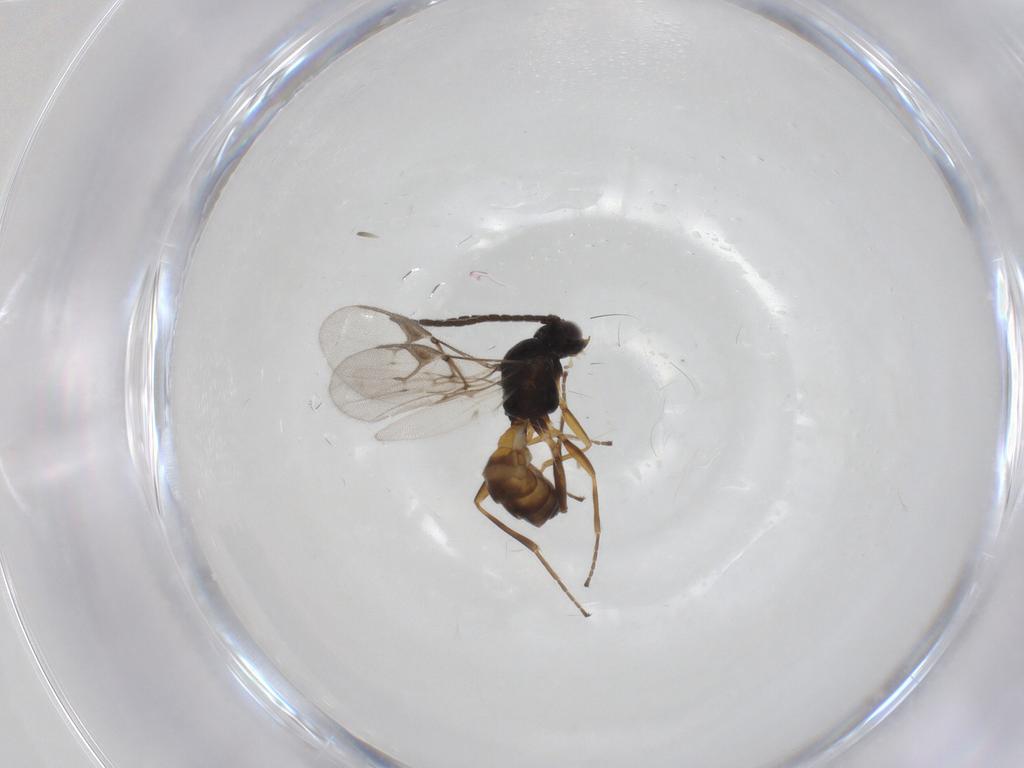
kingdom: Animalia
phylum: Arthropoda
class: Insecta
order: Hymenoptera
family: Braconidae
